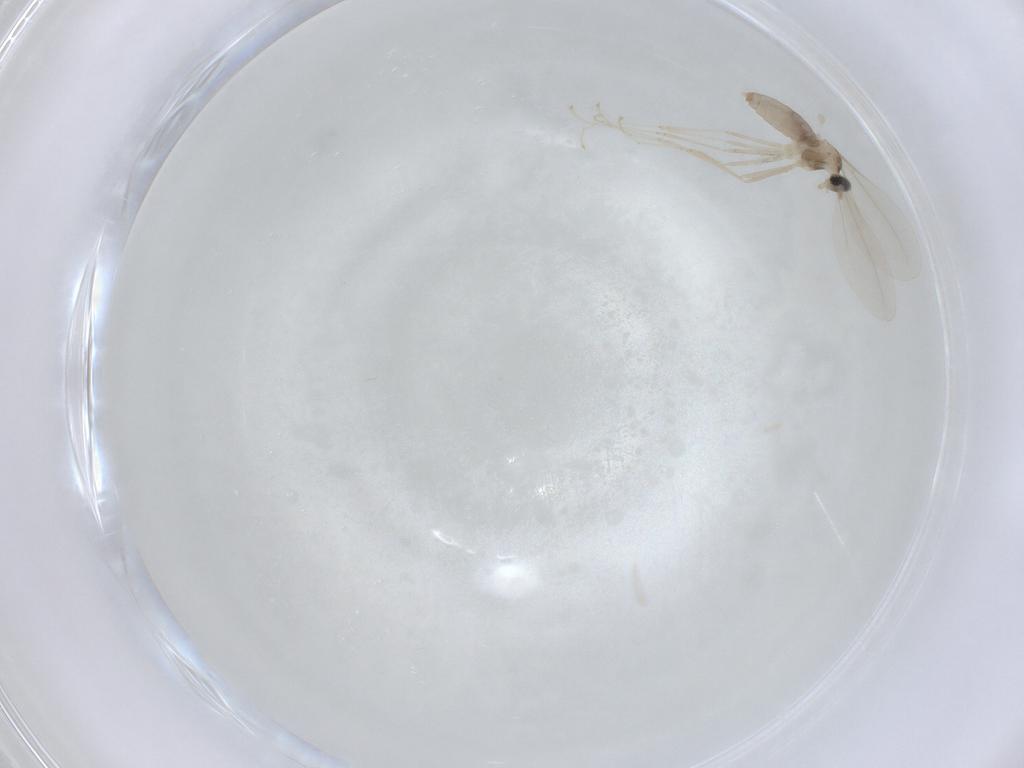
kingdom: Animalia
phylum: Arthropoda
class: Insecta
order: Diptera
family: Cecidomyiidae
